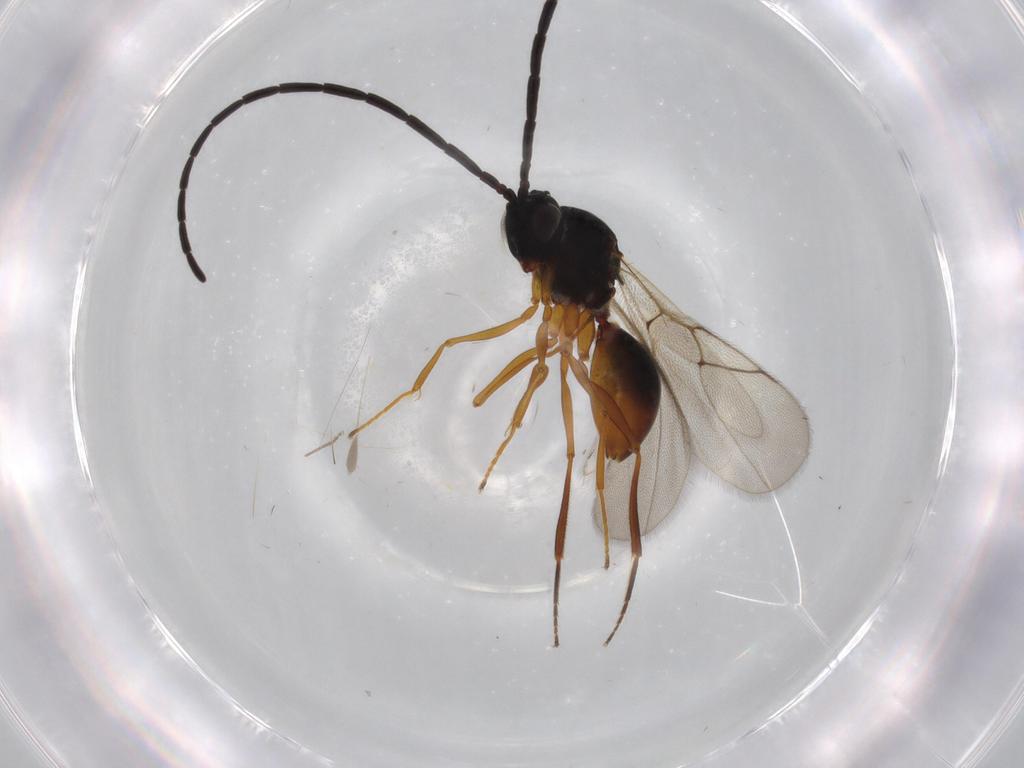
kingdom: Animalia
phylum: Arthropoda
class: Insecta
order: Hymenoptera
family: Figitidae
